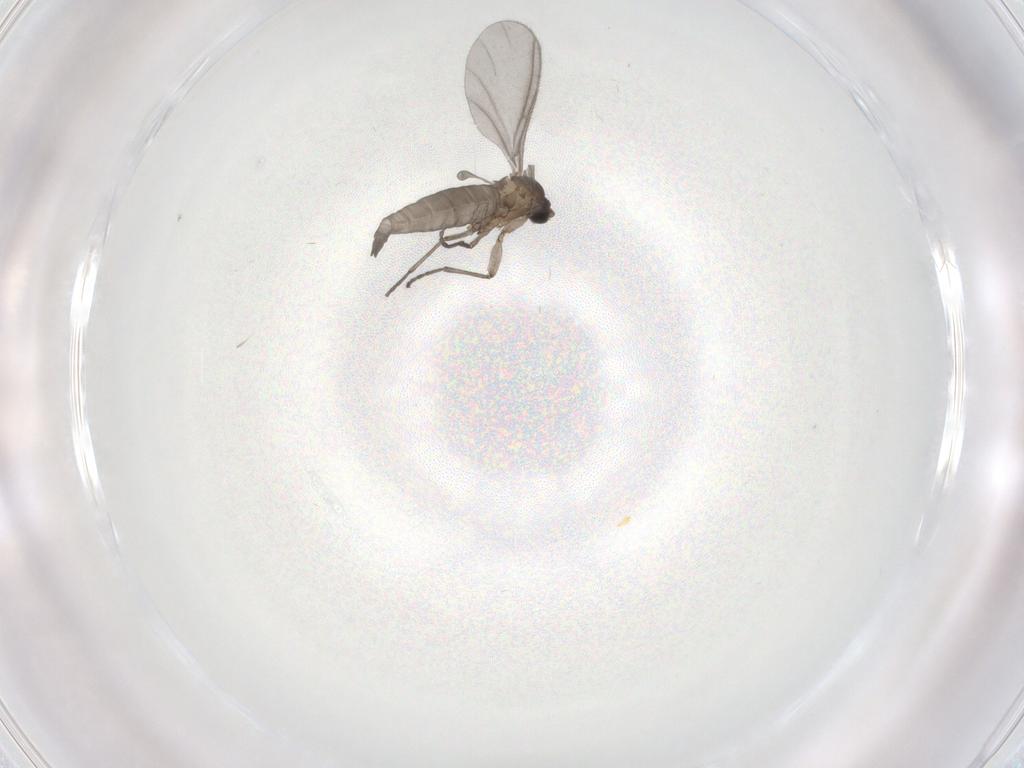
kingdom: Animalia
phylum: Arthropoda
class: Insecta
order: Diptera
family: Sciaridae
